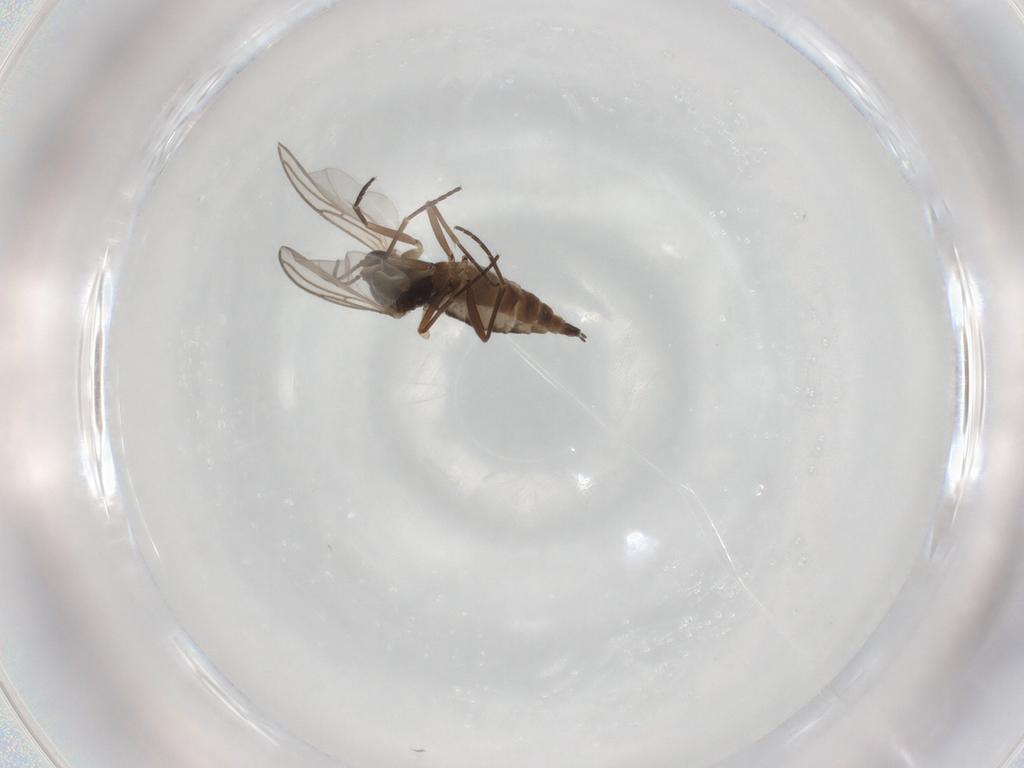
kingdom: Animalia
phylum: Arthropoda
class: Insecta
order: Diptera
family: Sciaridae
